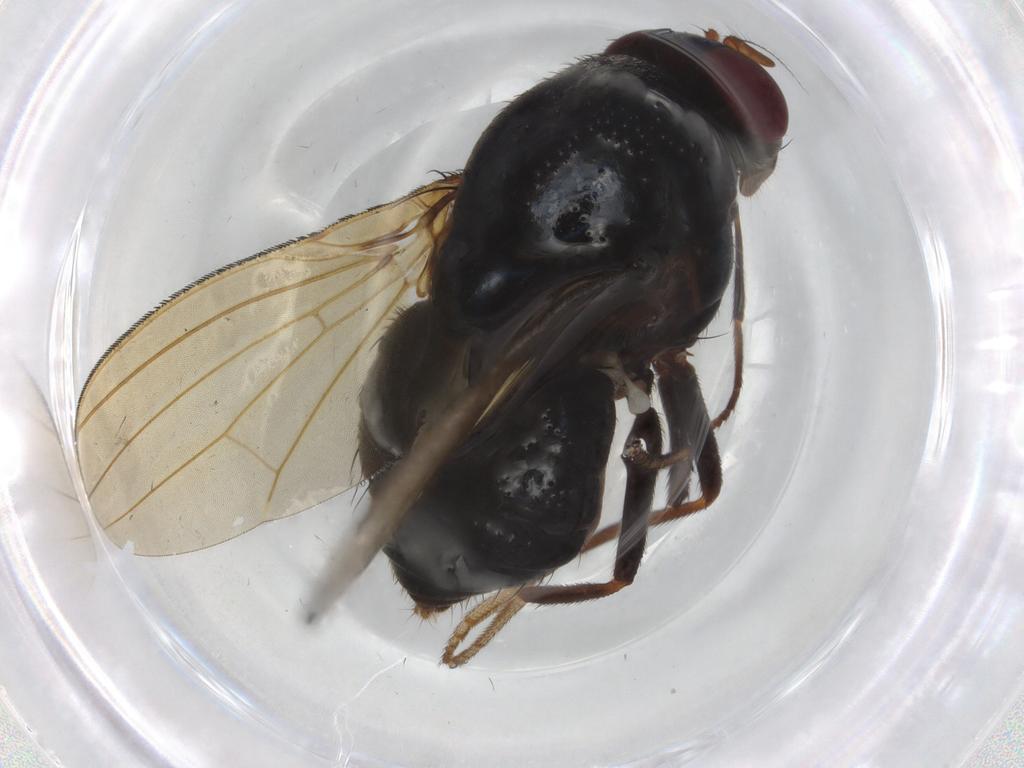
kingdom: Animalia
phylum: Arthropoda
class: Insecta
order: Diptera
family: Lauxaniidae
